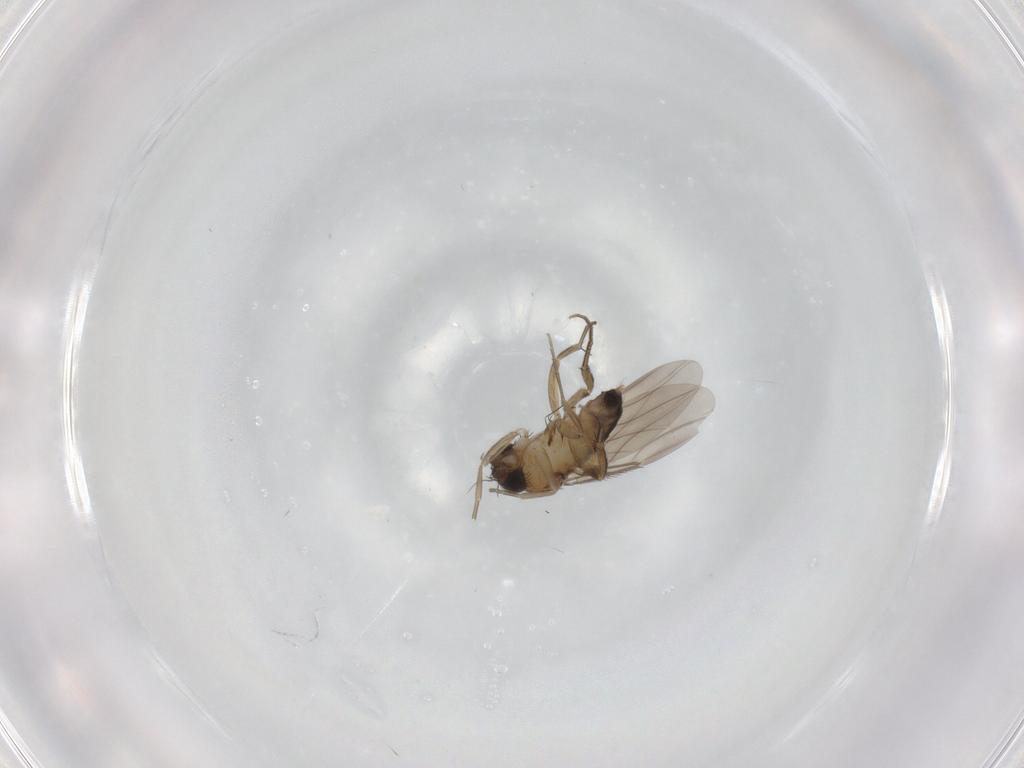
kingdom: Animalia
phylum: Arthropoda
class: Insecta
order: Diptera
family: Phoridae
